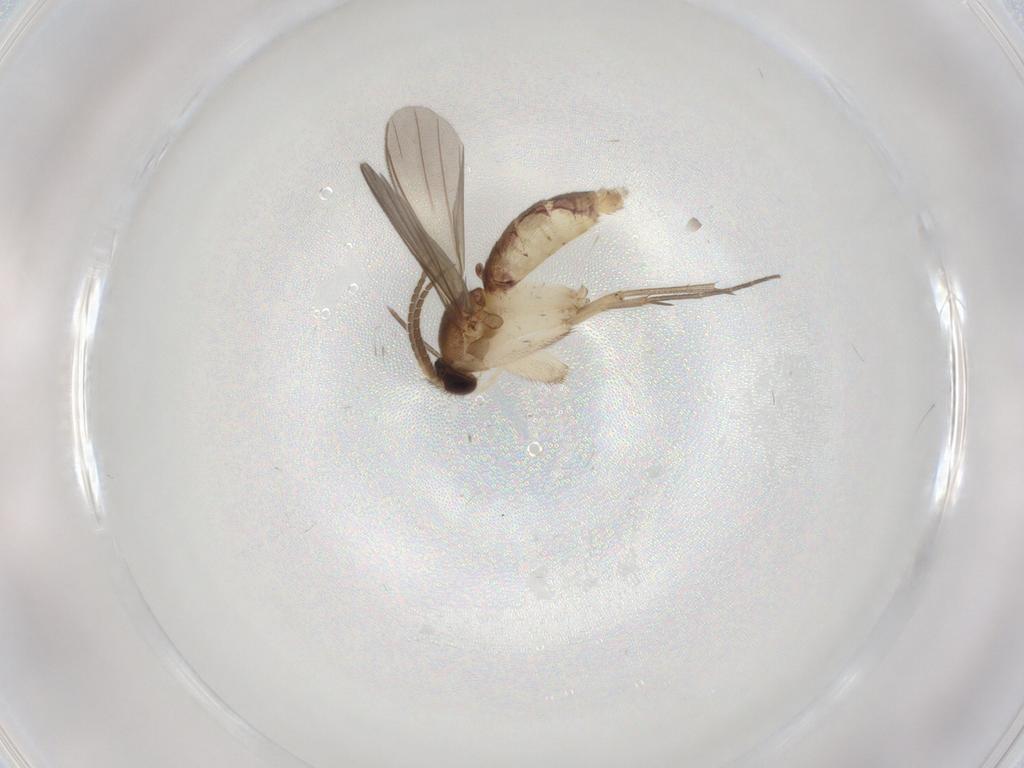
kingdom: Animalia
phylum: Arthropoda
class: Insecta
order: Diptera
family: Mycetophilidae
